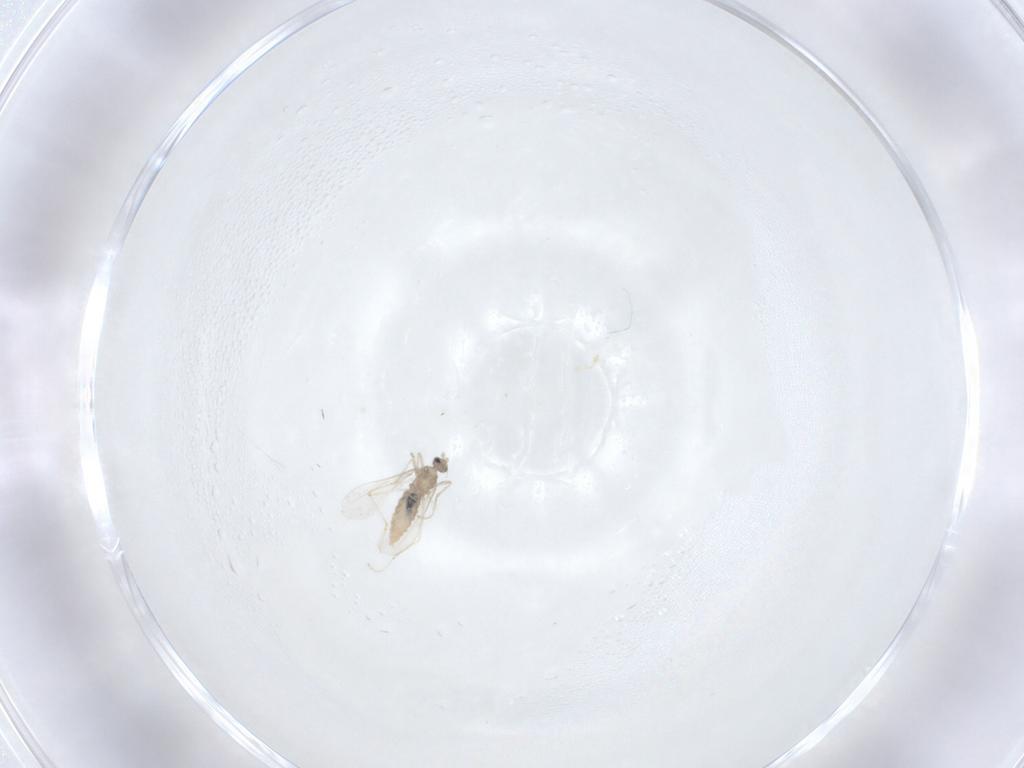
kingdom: Animalia
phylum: Arthropoda
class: Insecta
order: Diptera
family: Cecidomyiidae
